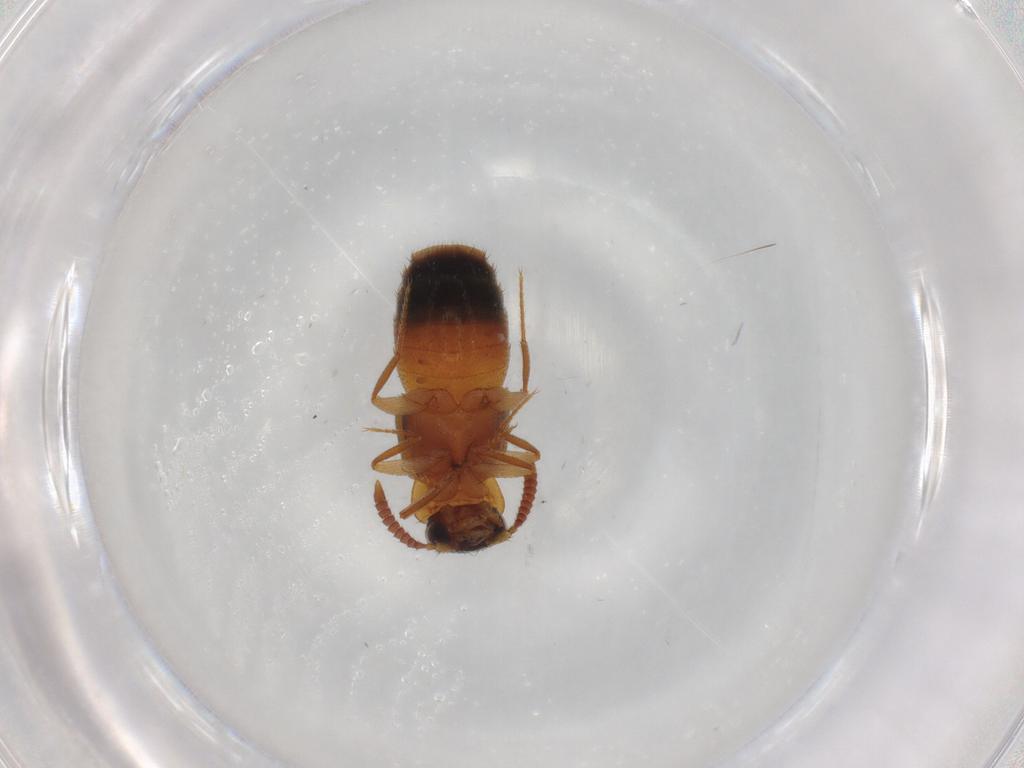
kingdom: Animalia
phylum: Arthropoda
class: Insecta
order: Coleoptera
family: Staphylinidae
